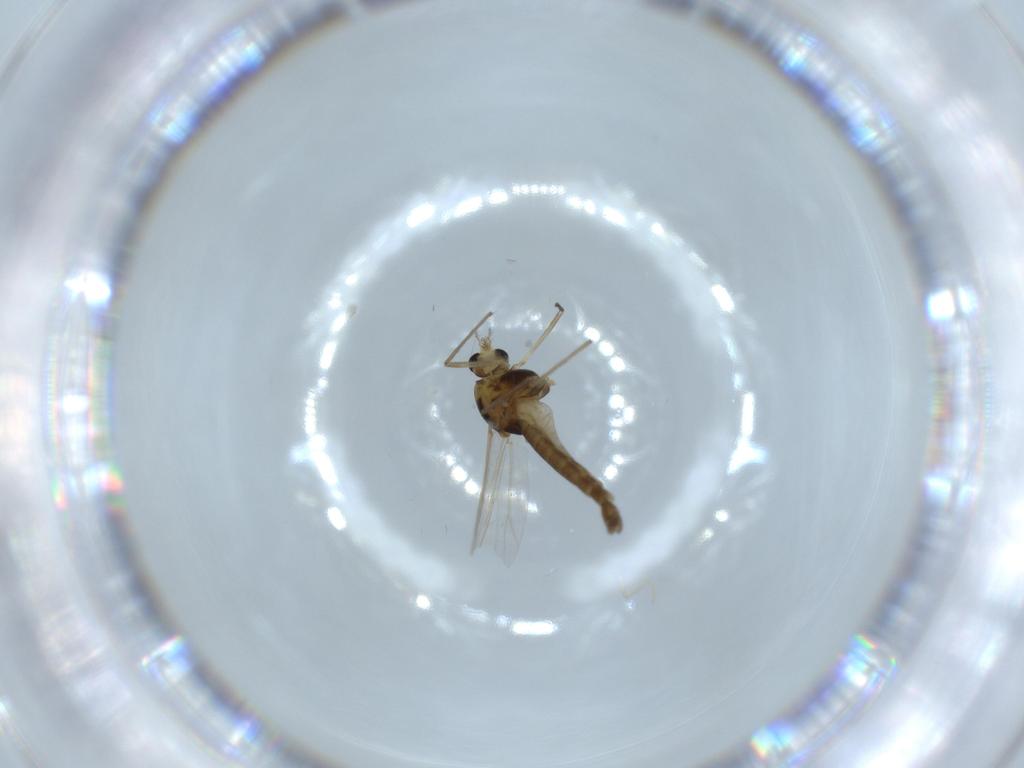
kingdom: Animalia
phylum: Arthropoda
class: Insecta
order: Diptera
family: Chironomidae
